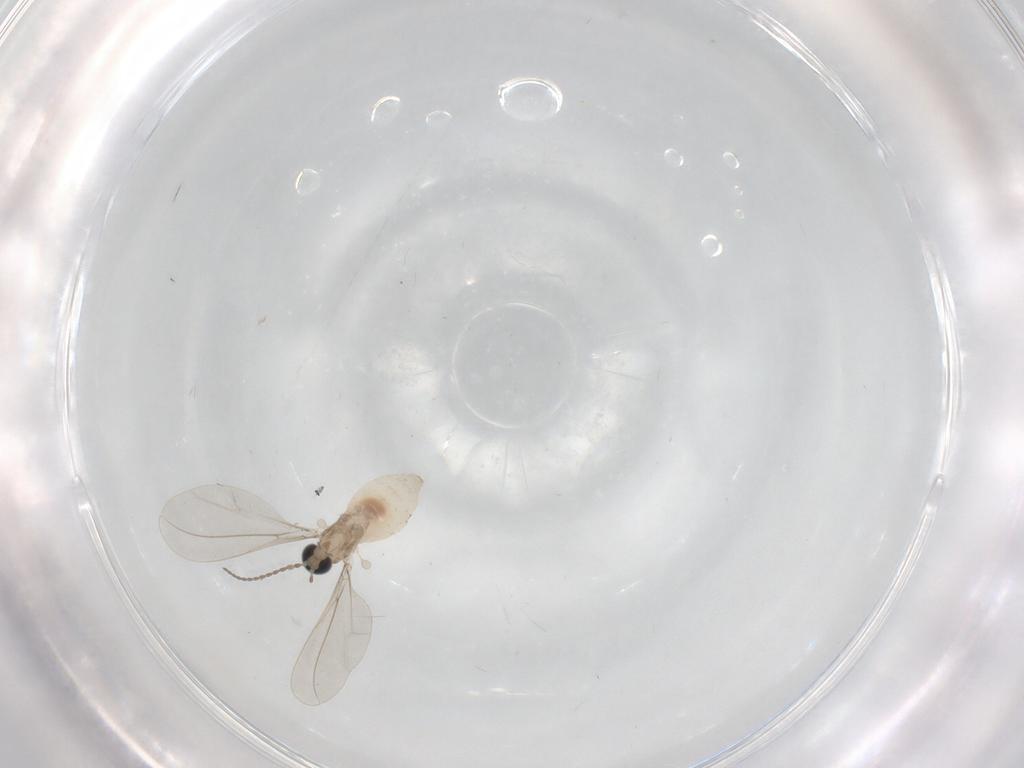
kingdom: Animalia
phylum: Arthropoda
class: Insecta
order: Diptera
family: Cecidomyiidae
